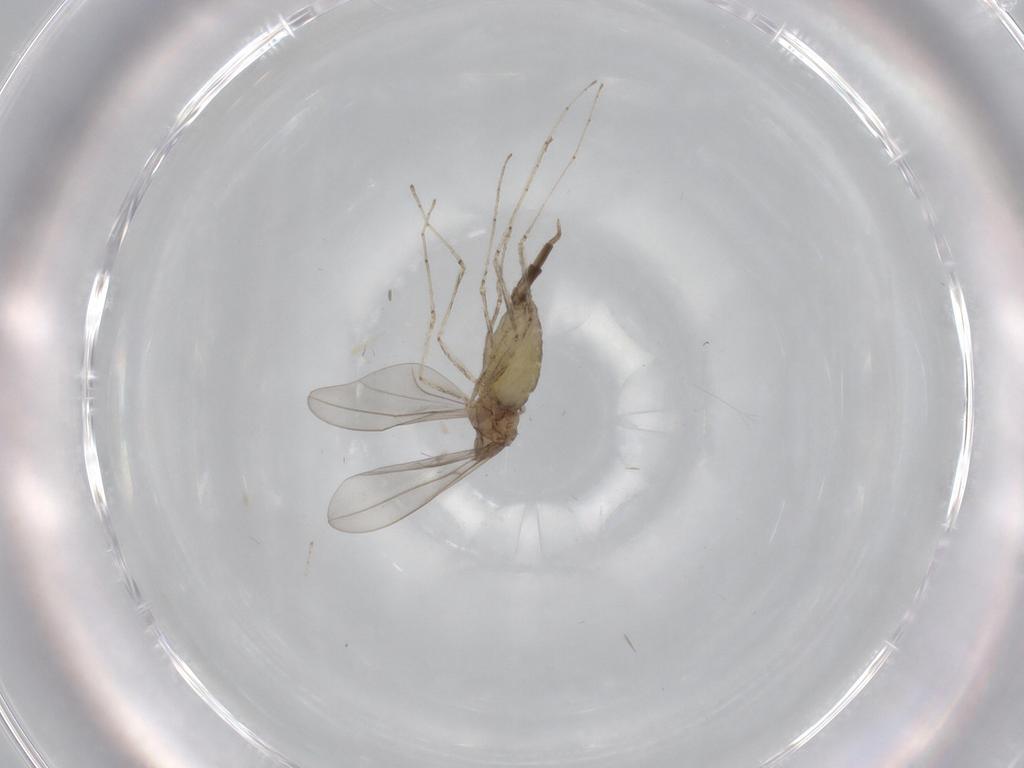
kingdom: Animalia
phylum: Arthropoda
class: Insecta
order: Diptera
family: Cecidomyiidae
